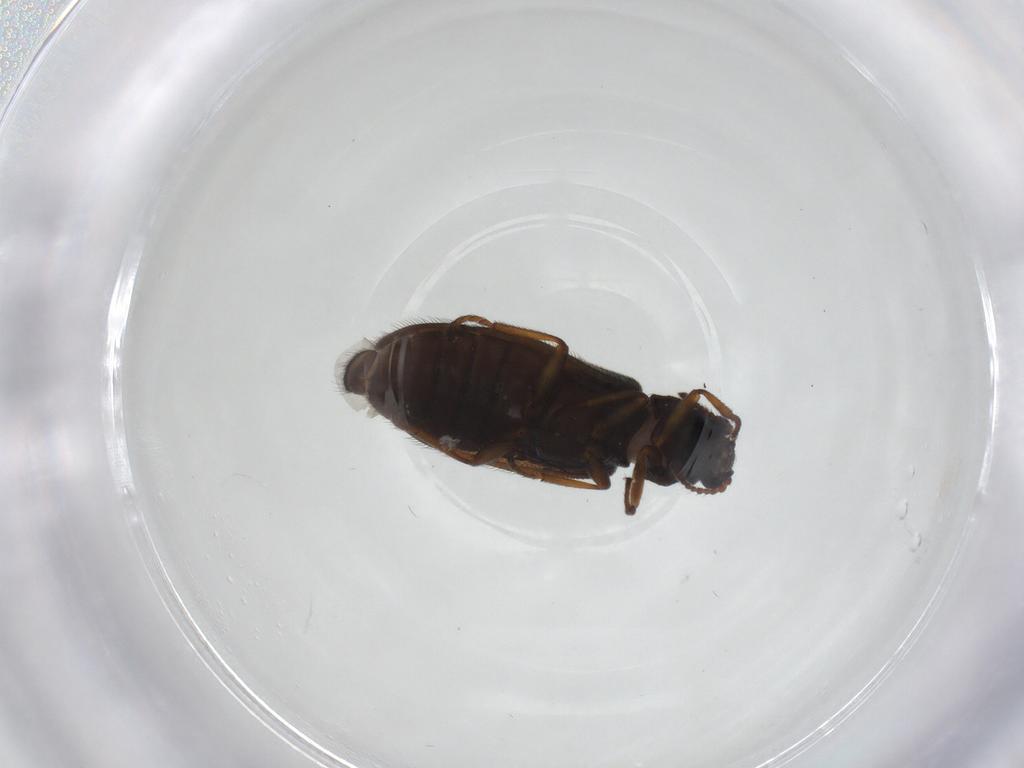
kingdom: Animalia
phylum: Arthropoda
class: Insecta
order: Coleoptera
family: Melyridae
